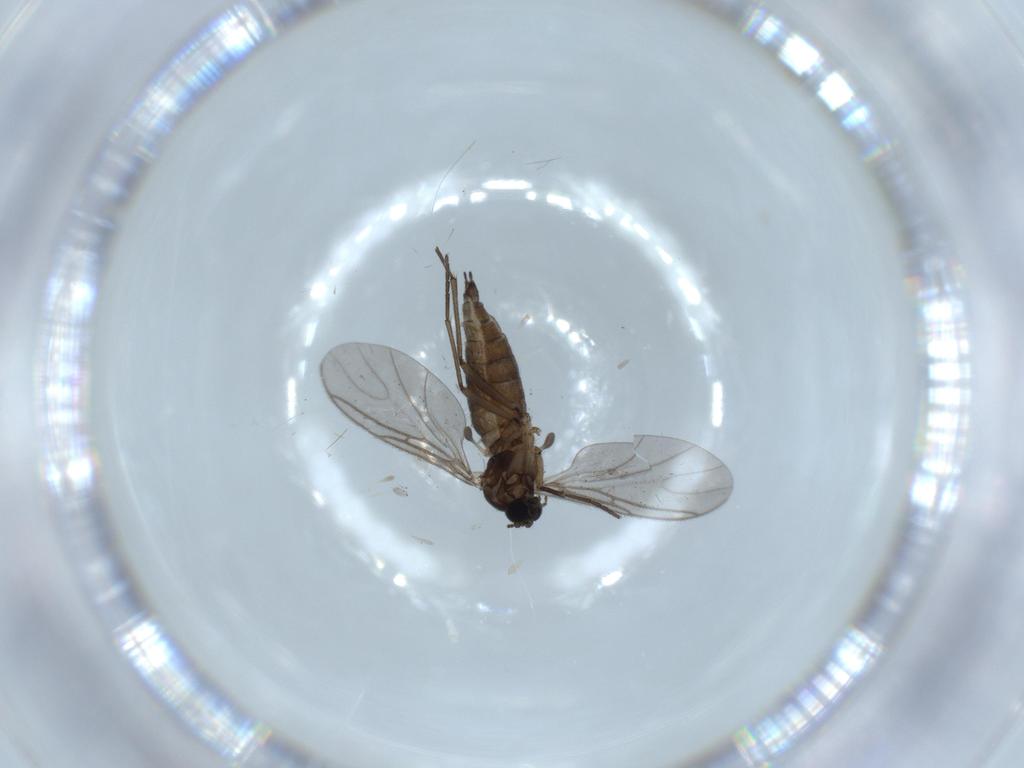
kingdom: Animalia
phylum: Arthropoda
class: Insecta
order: Diptera
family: Sciaridae
